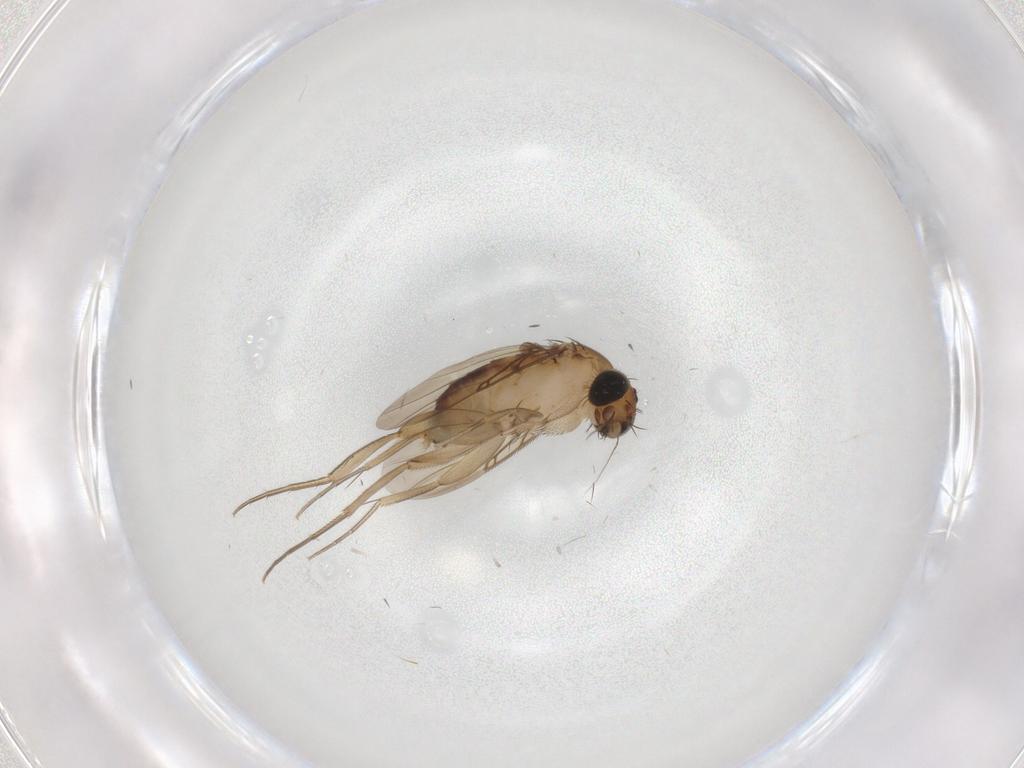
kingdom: Animalia
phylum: Arthropoda
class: Insecta
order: Diptera
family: Phoridae
